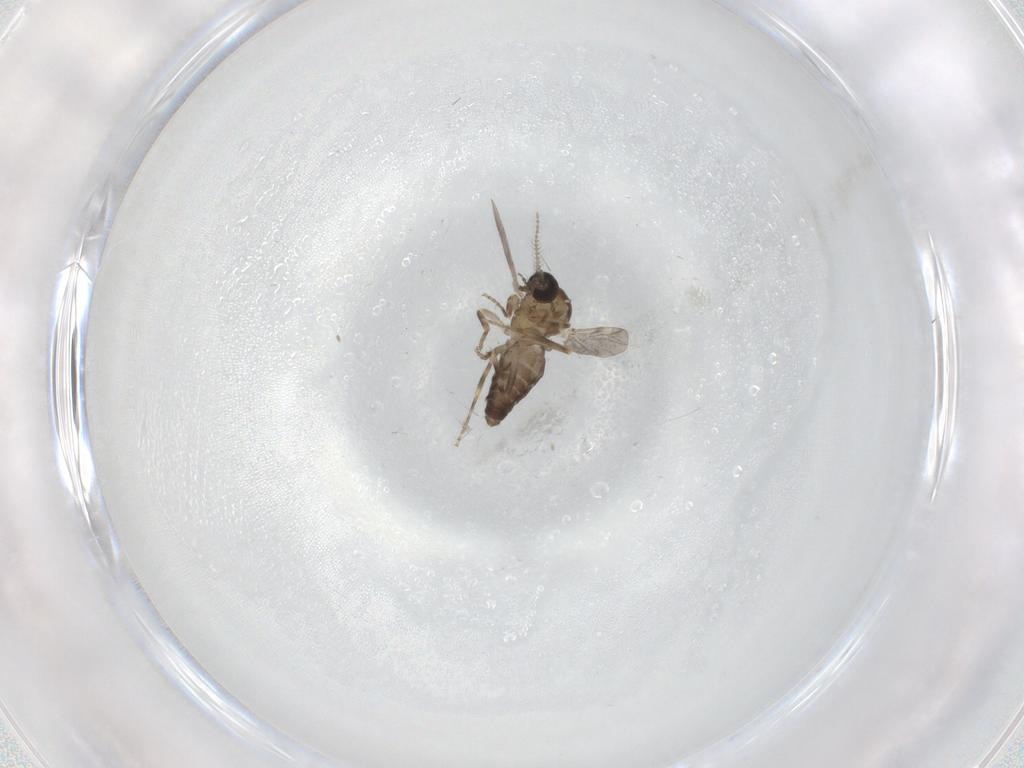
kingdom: Animalia
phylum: Arthropoda
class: Insecta
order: Diptera
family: Ceratopogonidae
